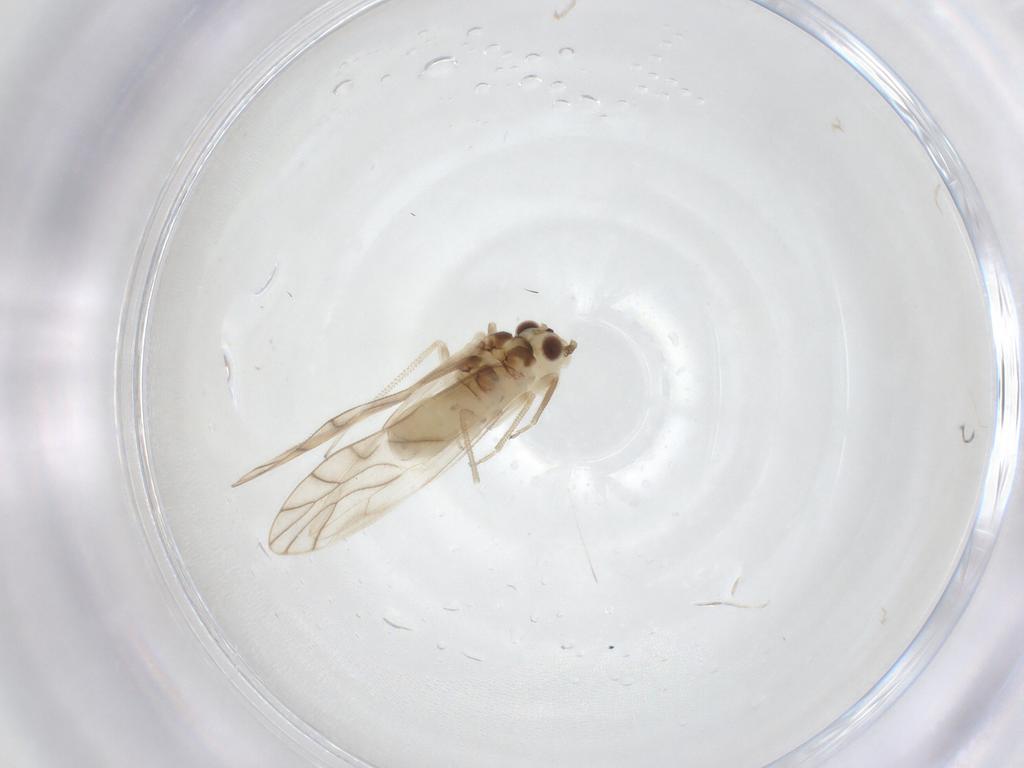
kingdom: Animalia
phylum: Arthropoda
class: Insecta
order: Psocodea
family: Caeciliusidae
